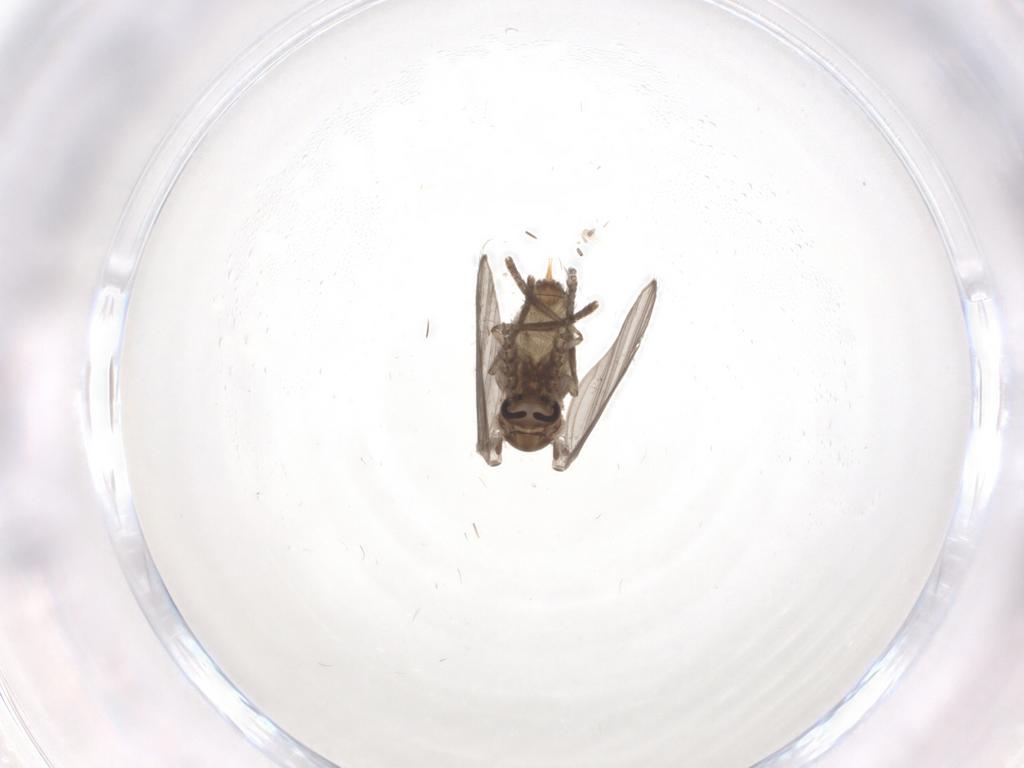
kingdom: Animalia
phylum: Arthropoda
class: Insecta
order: Diptera
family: Psychodidae
